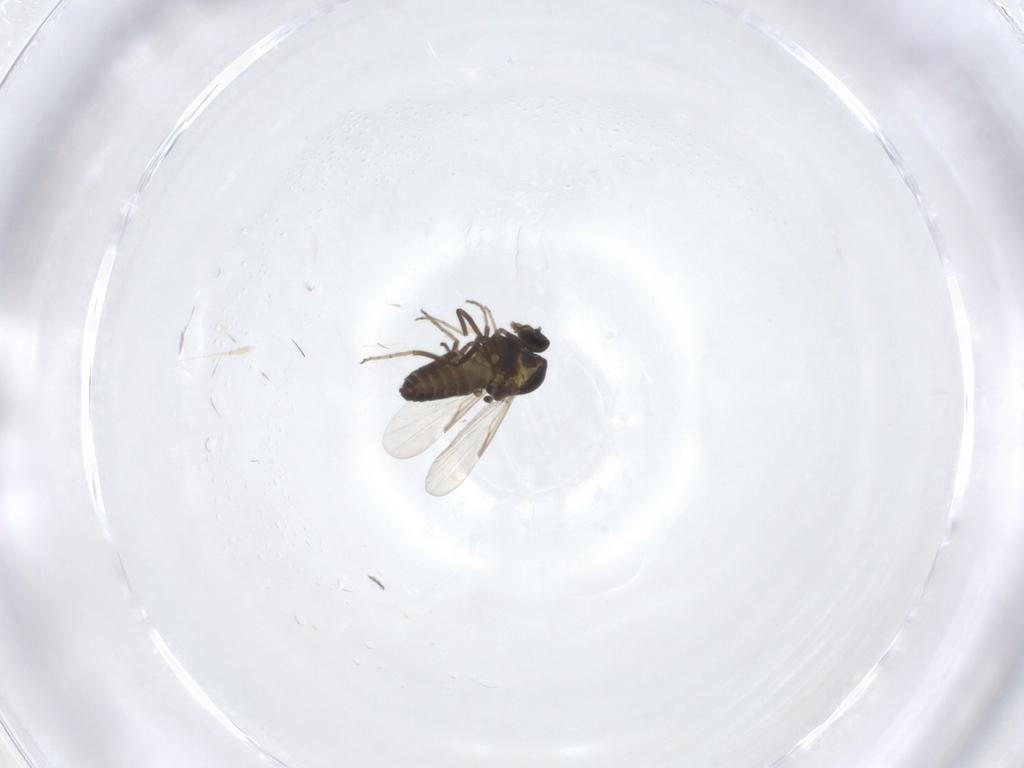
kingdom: Animalia
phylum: Arthropoda
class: Insecta
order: Diptera
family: Ceratopogonidae
